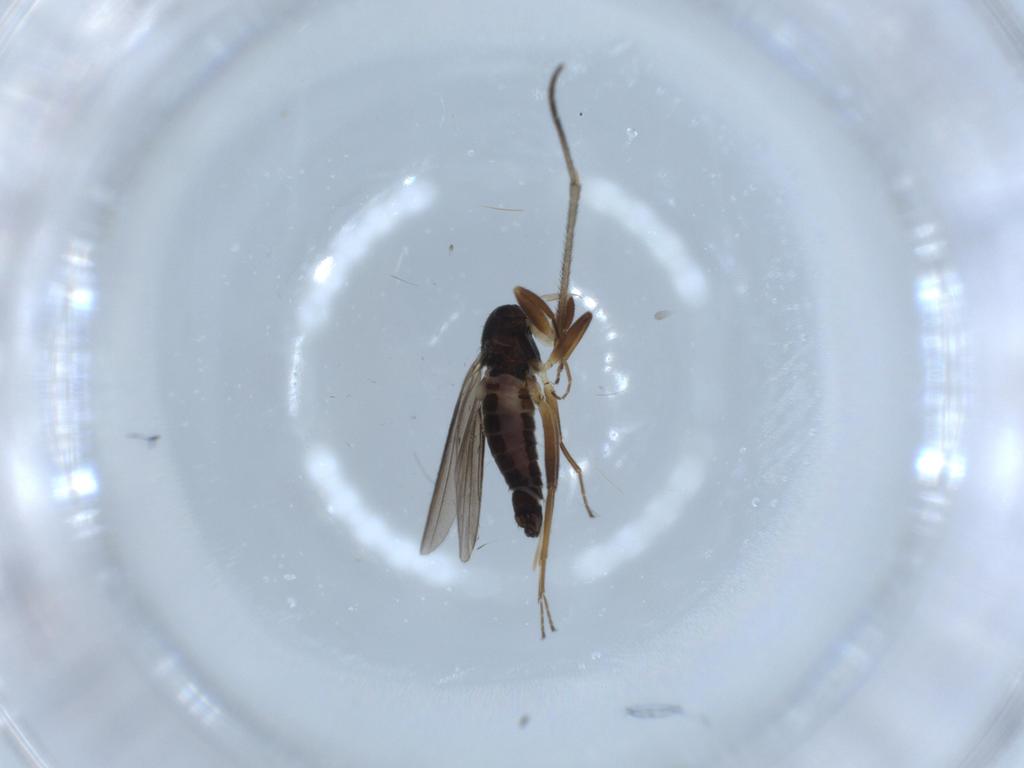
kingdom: Animalia
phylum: Arthropoda
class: Insecta
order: Diptera
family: Hybotidae
